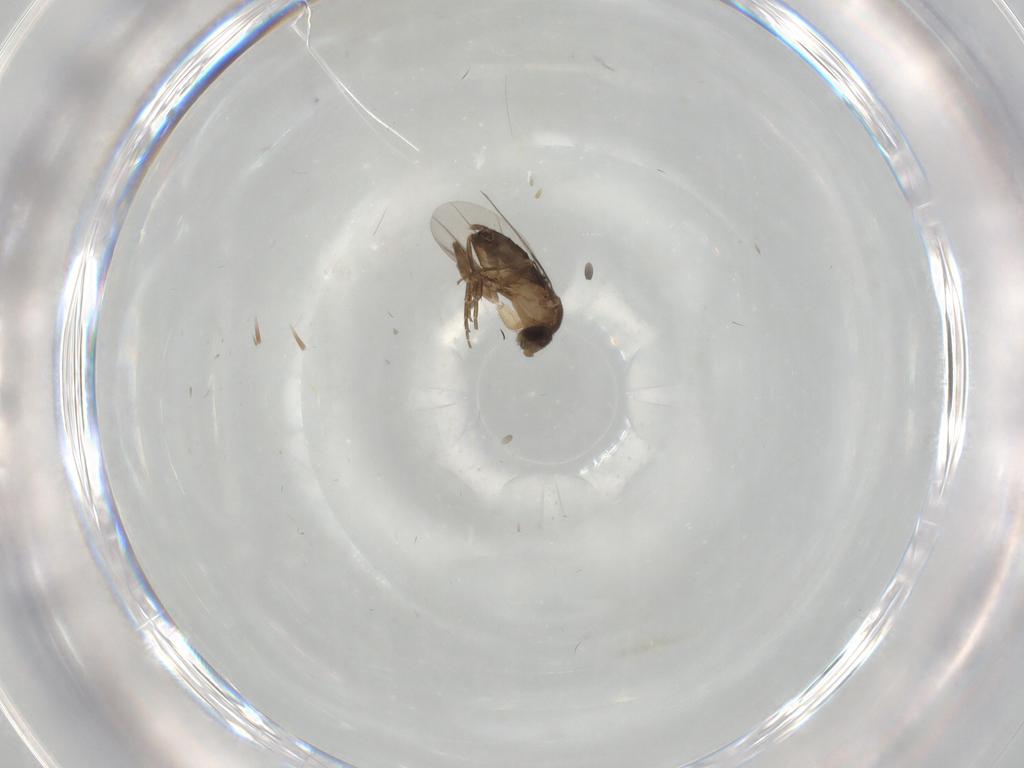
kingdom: Animalia
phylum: Arthropoda
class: Insecta
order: Diptera
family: Phoridae
